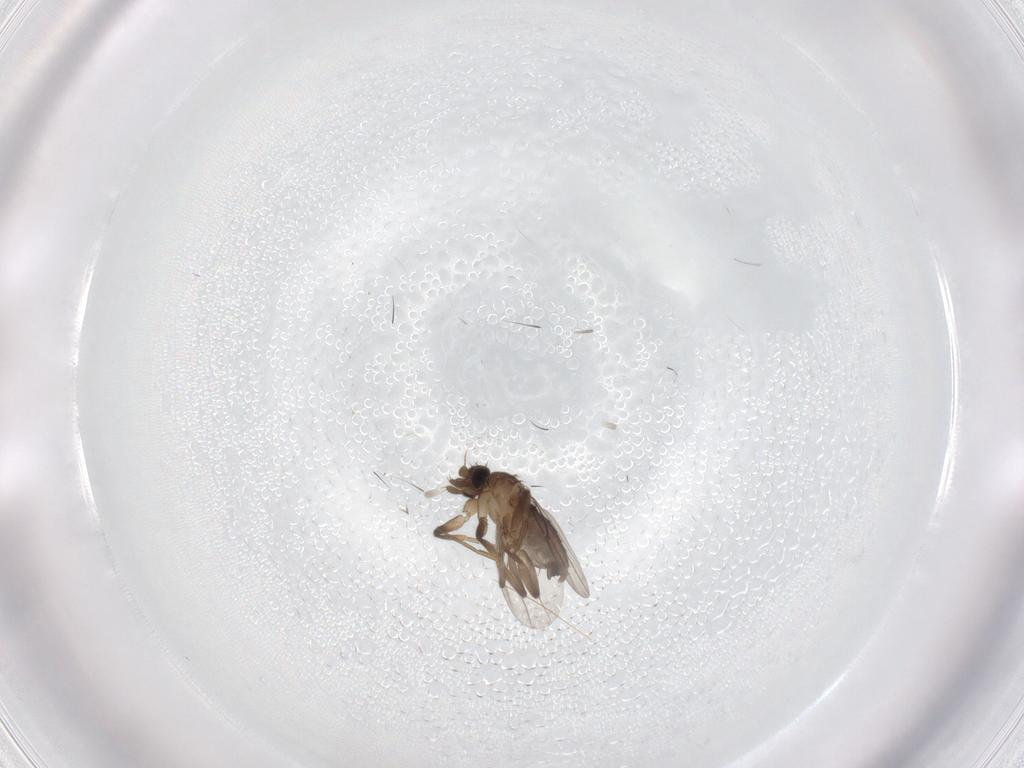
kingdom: Animalia
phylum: Arthropoda
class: Insecta
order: Diptera
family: Phoridae
